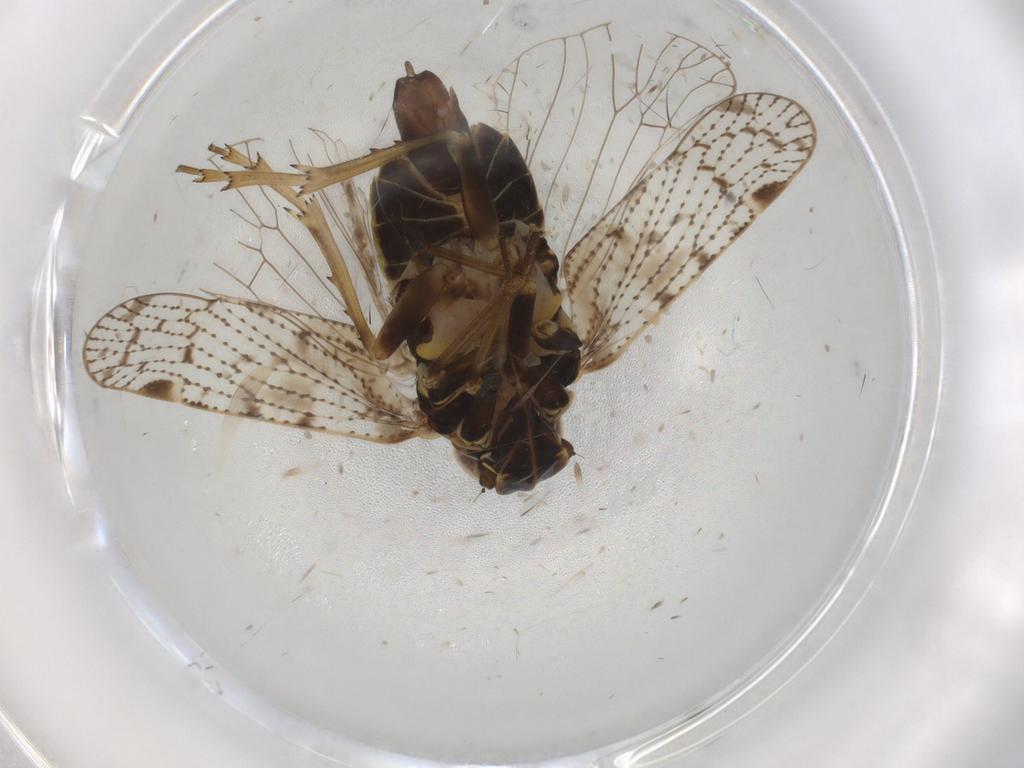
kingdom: Animalia
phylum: Arthropoda
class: Insecta
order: Hemiptera
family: Cixiidae
